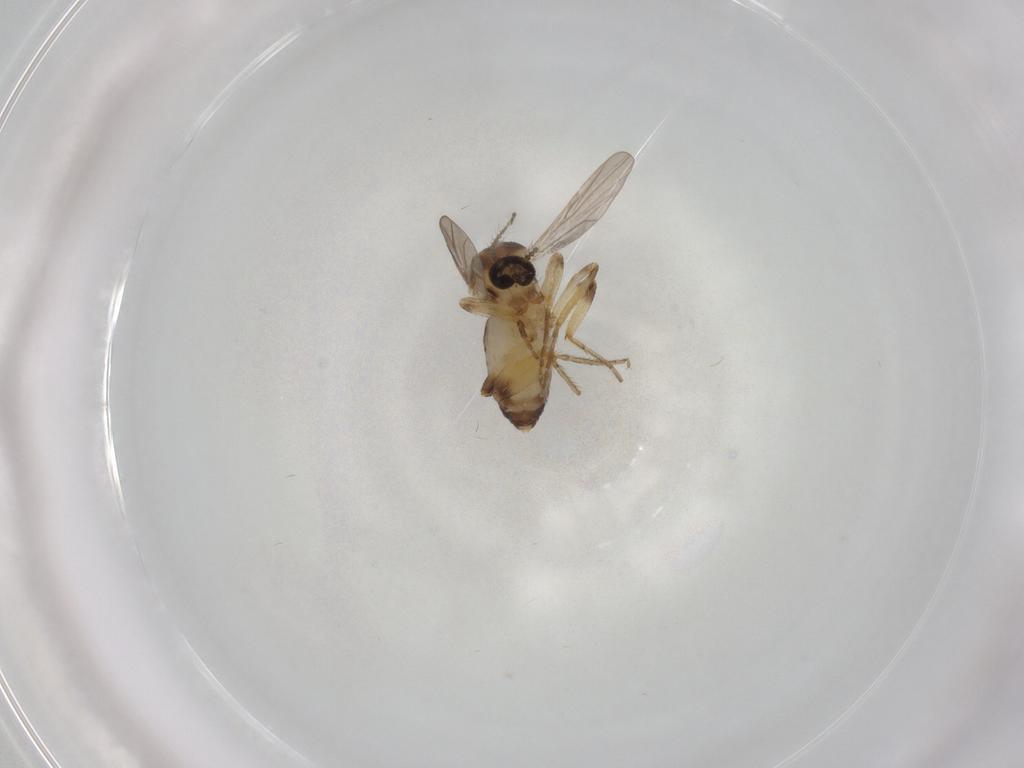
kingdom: Animalia
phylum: Arthropoda
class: Insecta
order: Diptera
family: Ceratopogonidae
